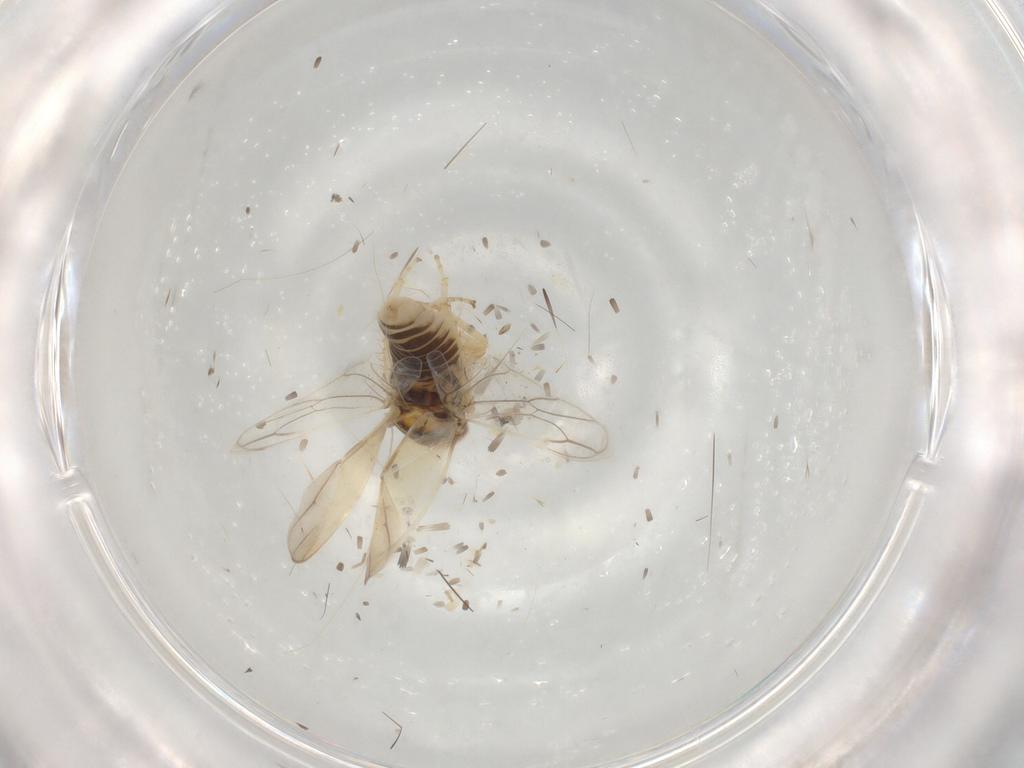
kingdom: Animalia
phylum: Arthropoda
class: Insecta
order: Hemiptera
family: Cicadellidae
